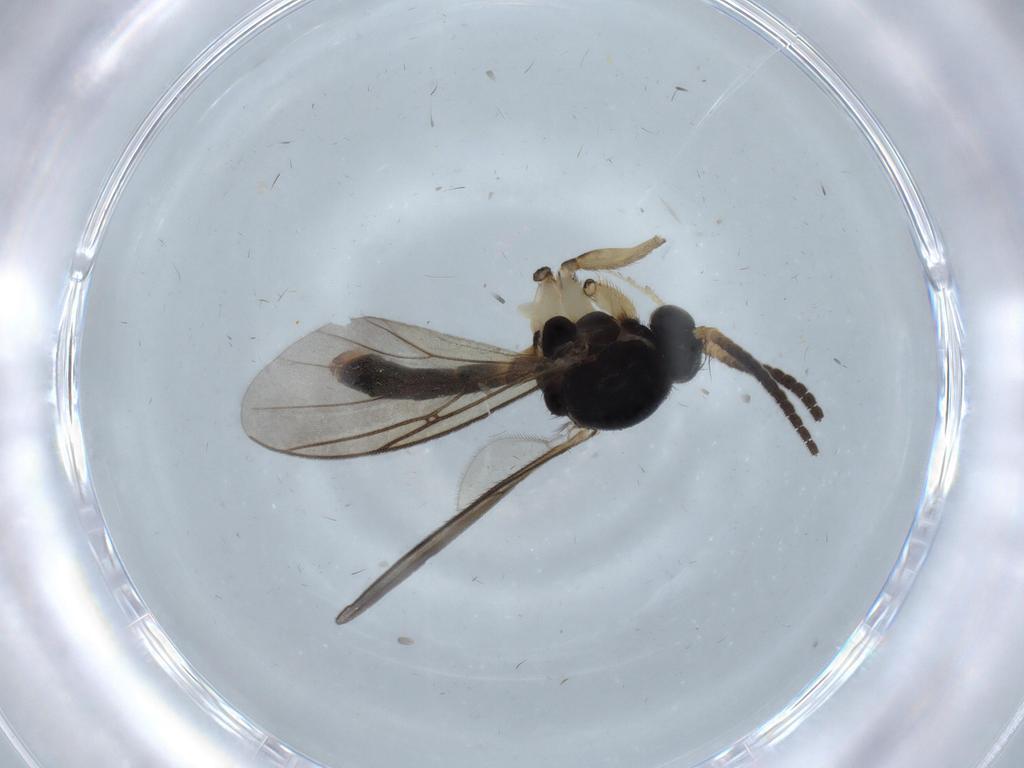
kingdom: Animalia
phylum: Arthropoda
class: Insecta
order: Diptera
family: Mycetophilidae
